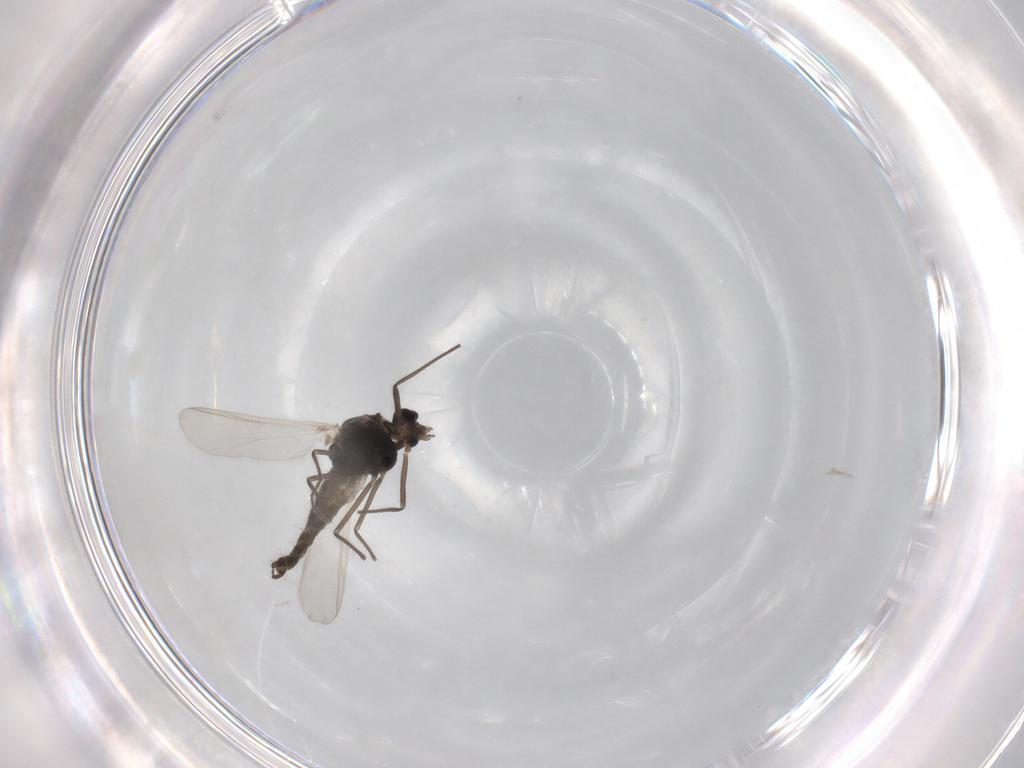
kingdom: Animalia
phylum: Arthropoda
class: Insecta
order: Diptera
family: Chironomidae
